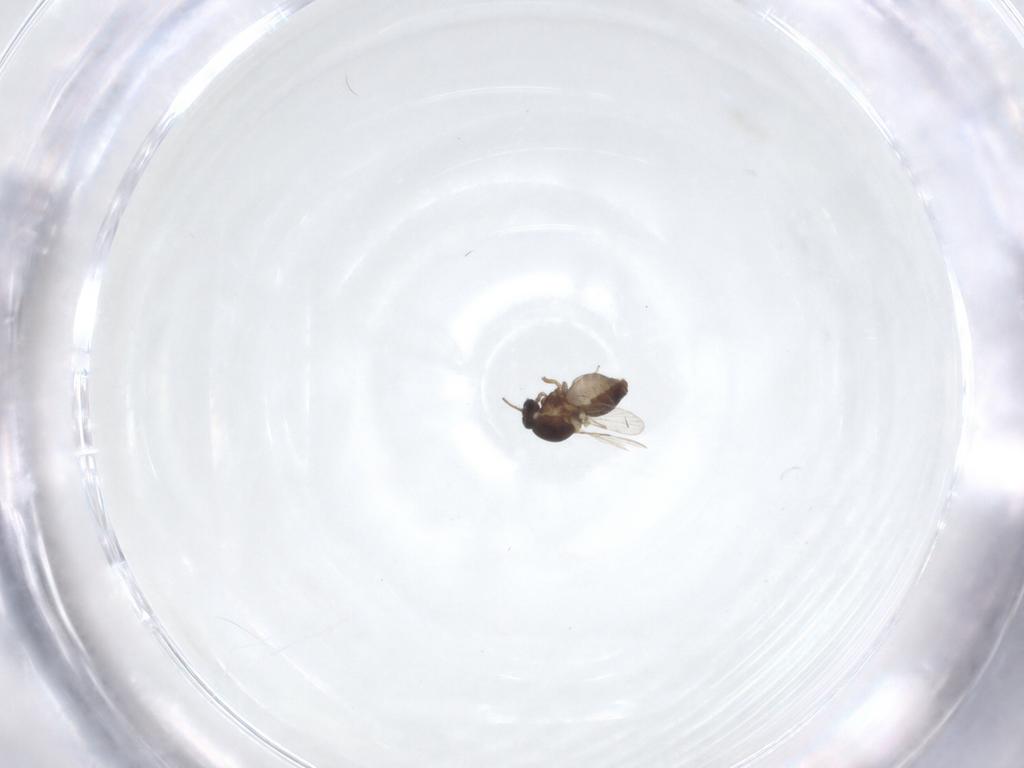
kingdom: Animalia
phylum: Arthropoda
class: Insecta
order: Diptera
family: Ceratopogonidae
